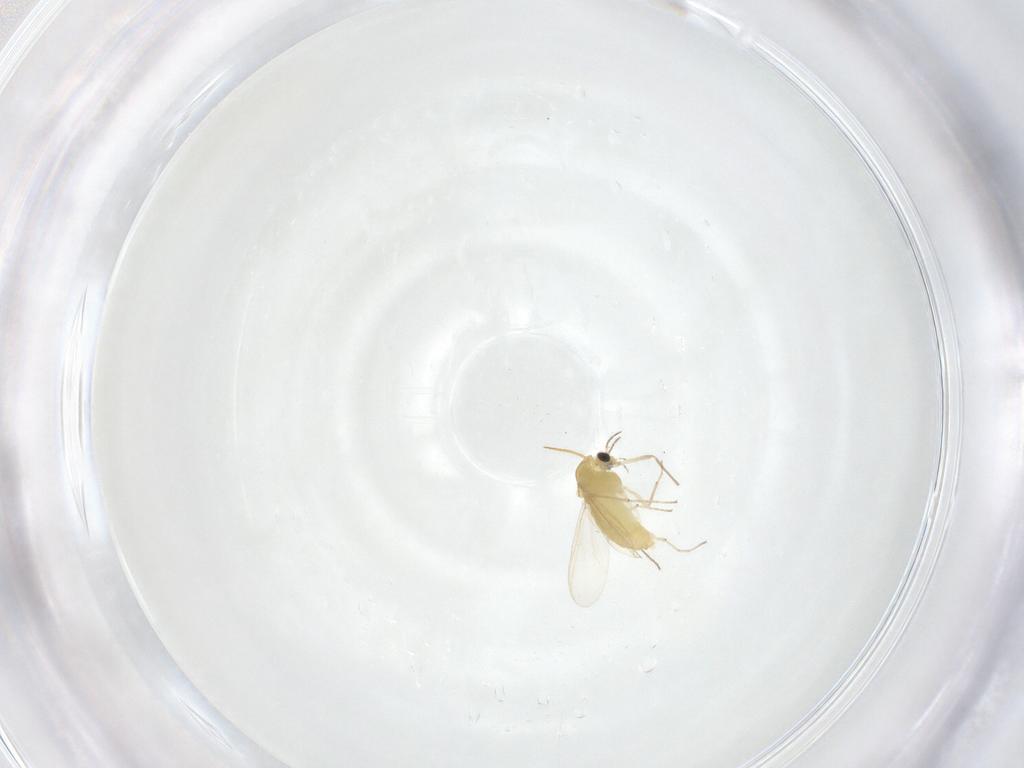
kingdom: Animalia
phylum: Arthropoda
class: Insecta
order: Diptera
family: Chironomidae
